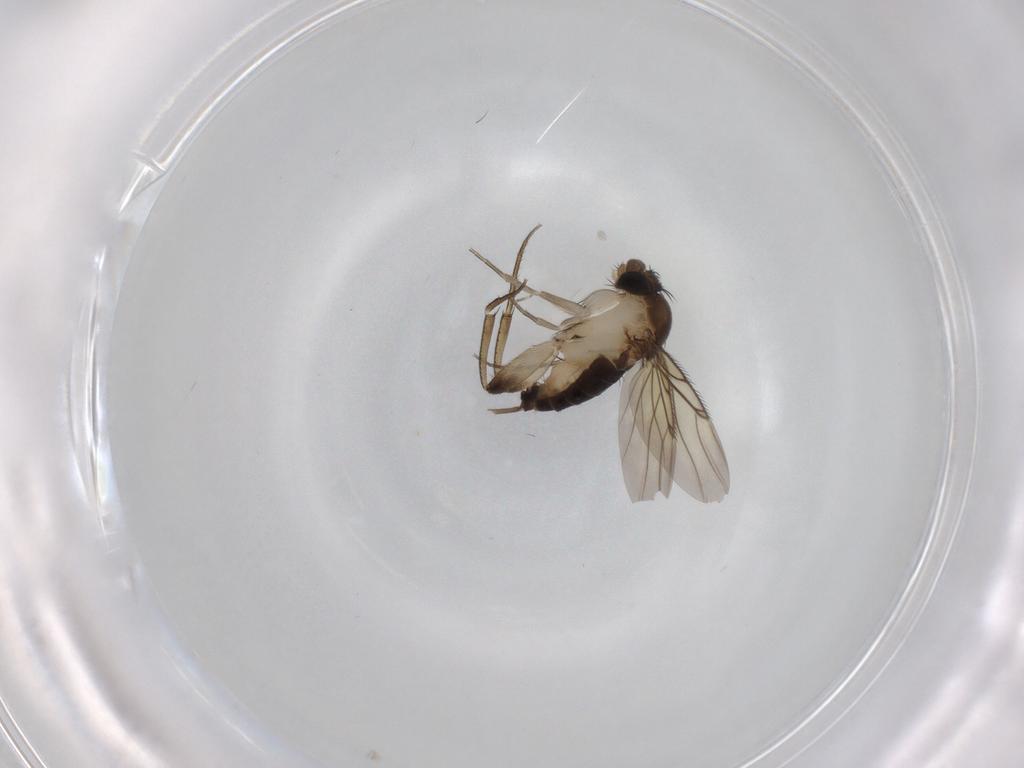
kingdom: Animalia
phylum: Arthropoda
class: Insecta
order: Diptera
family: Phoridae
